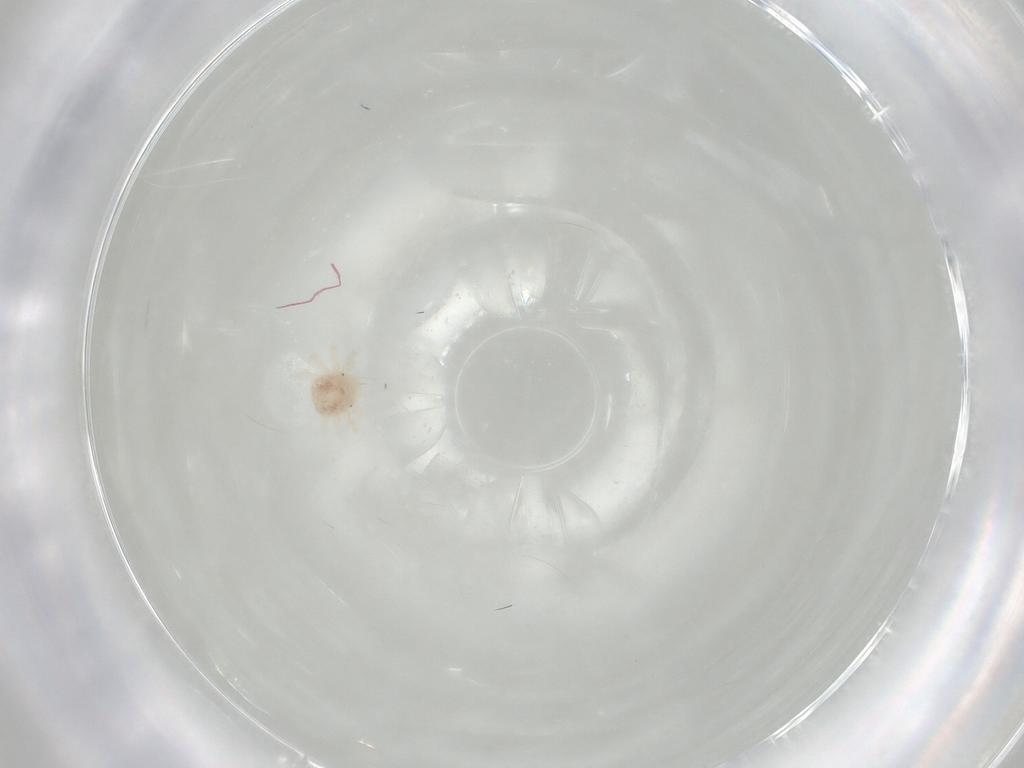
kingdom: Animalia
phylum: Arthropoda
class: Arachnida
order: Trombidiformes
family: Anystidae
